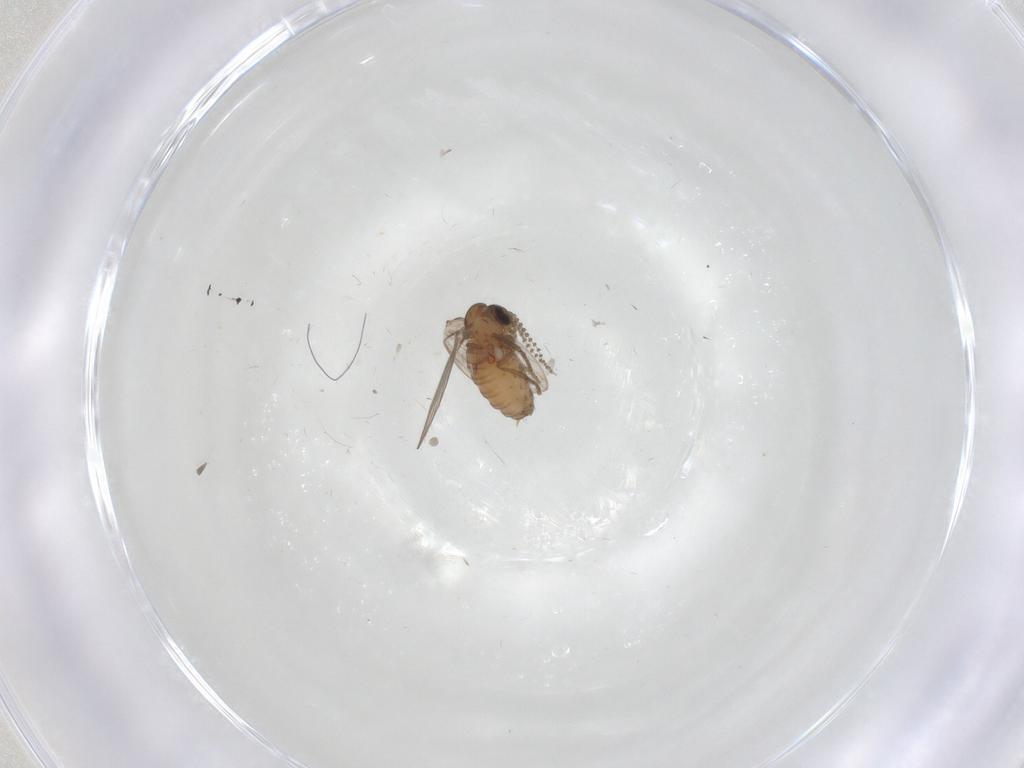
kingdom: Animalia
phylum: Arthropoda
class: Insecta
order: Diptera
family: Psychodidae
